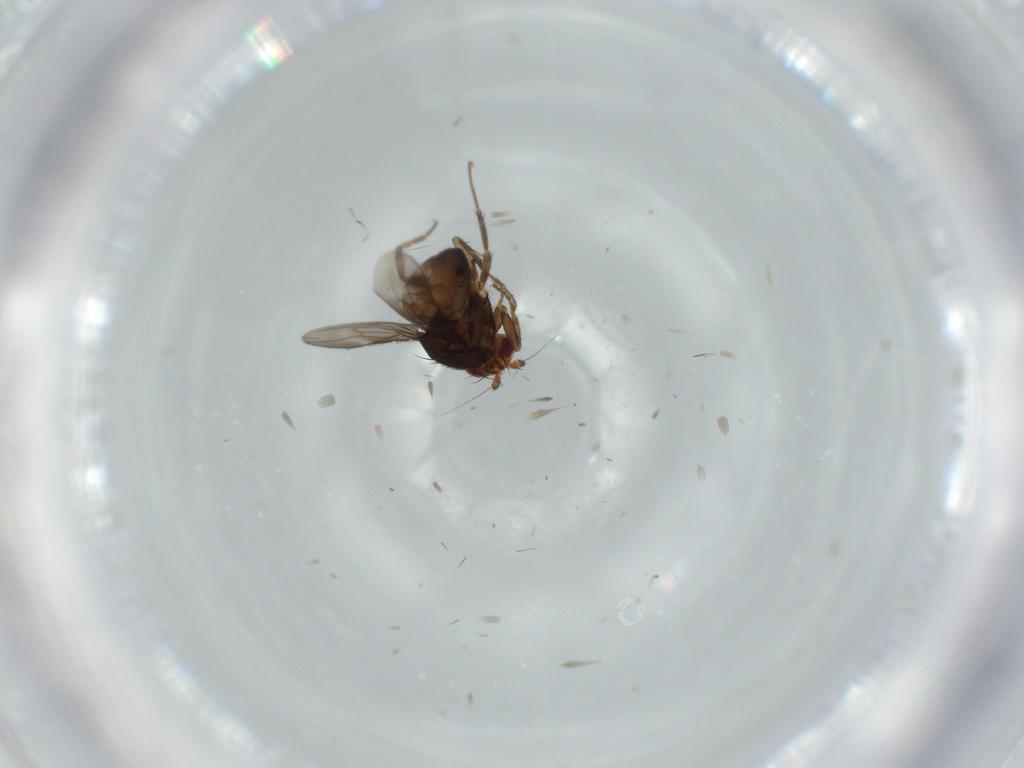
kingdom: Animalia
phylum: Arthropoda
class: Insecta
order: Diptera
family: Sphaeroceridae
